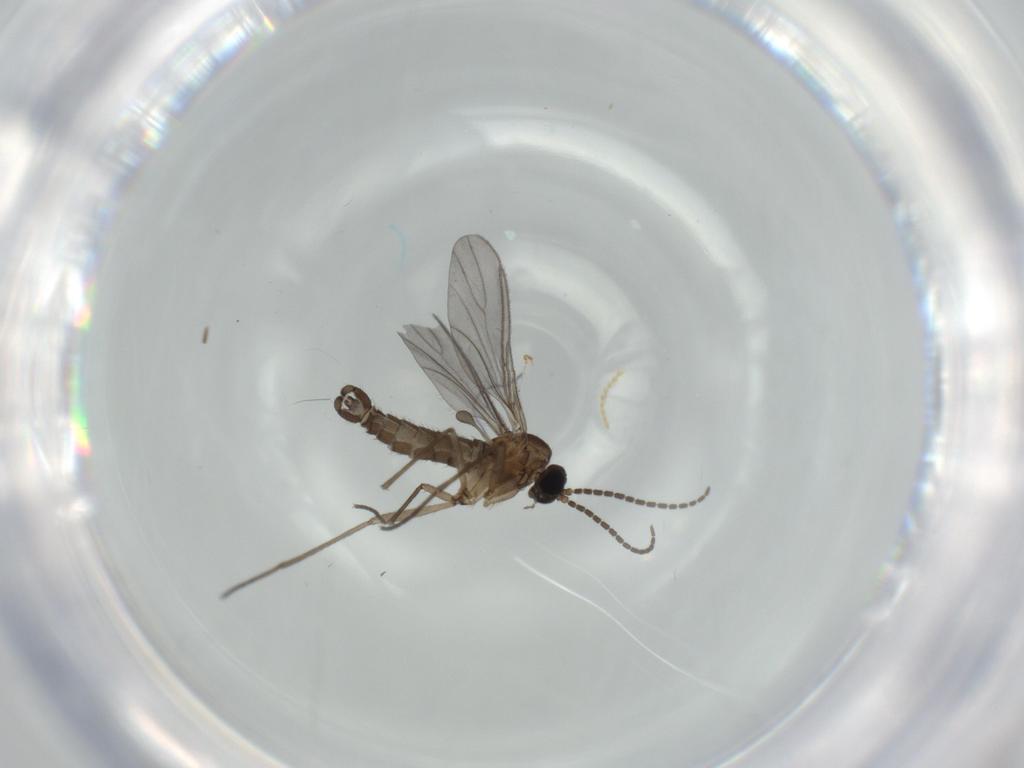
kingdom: Animalia
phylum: Arthropoda
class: Insecta
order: Diptera
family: Sciaridae
